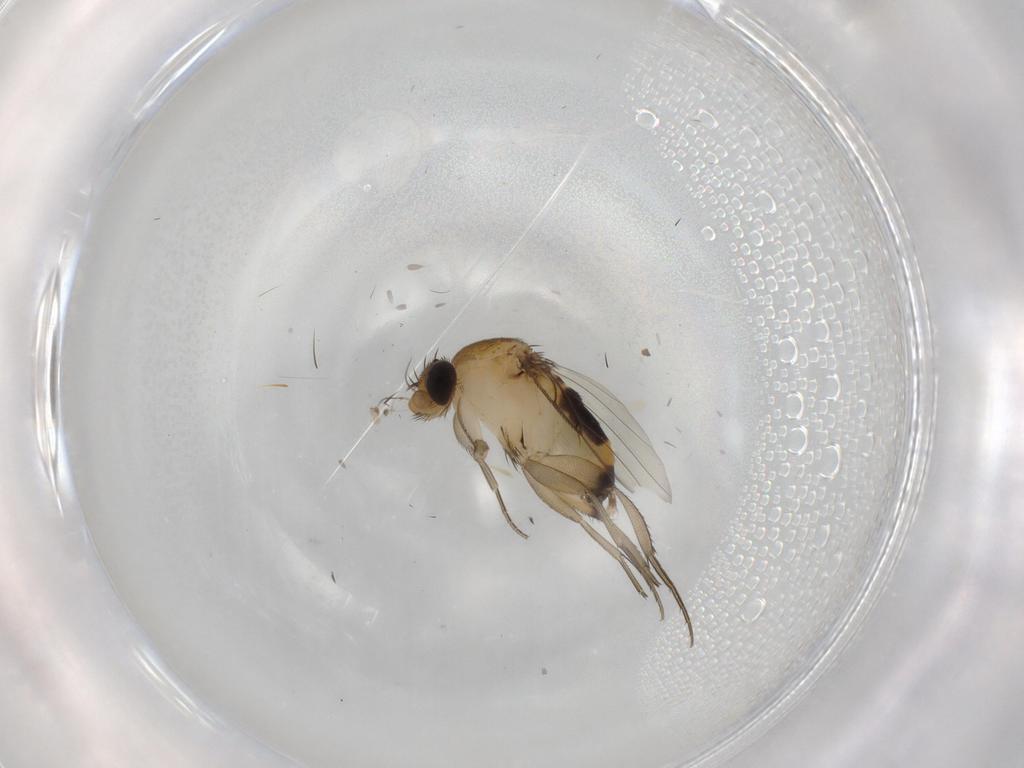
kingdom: Animalia
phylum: Arthropoda
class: Insecta
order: Diptera
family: Phoridae
